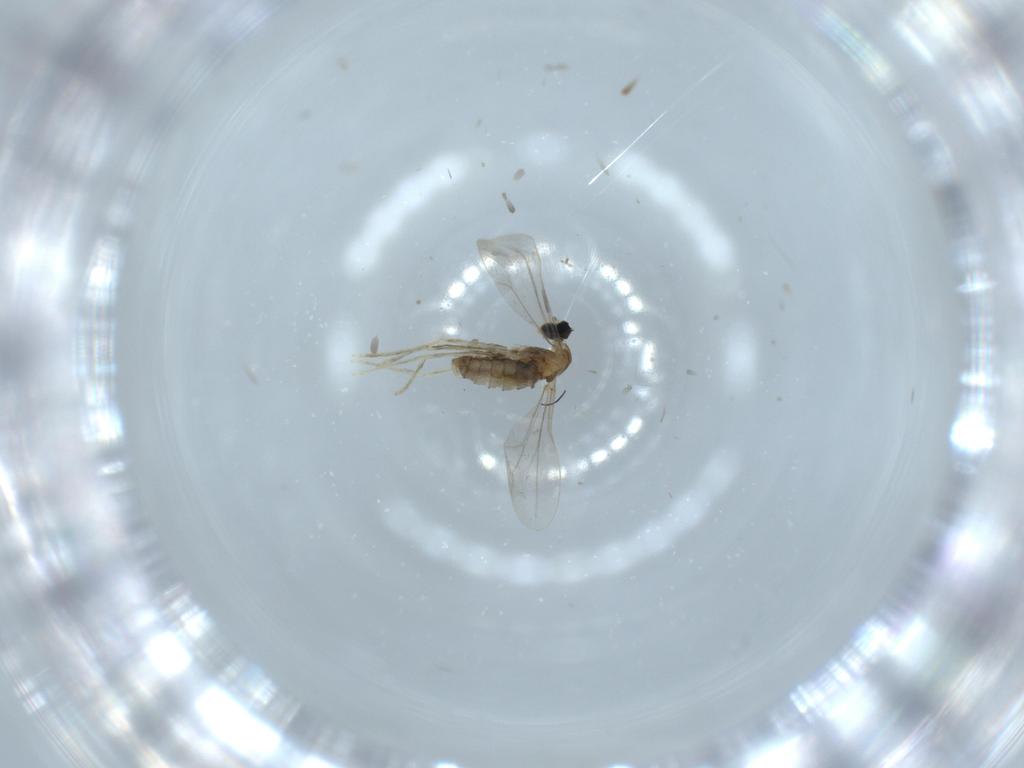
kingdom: Animalia
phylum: Arthropoda
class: Insecta
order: Diptera
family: Cecidomyiidae
